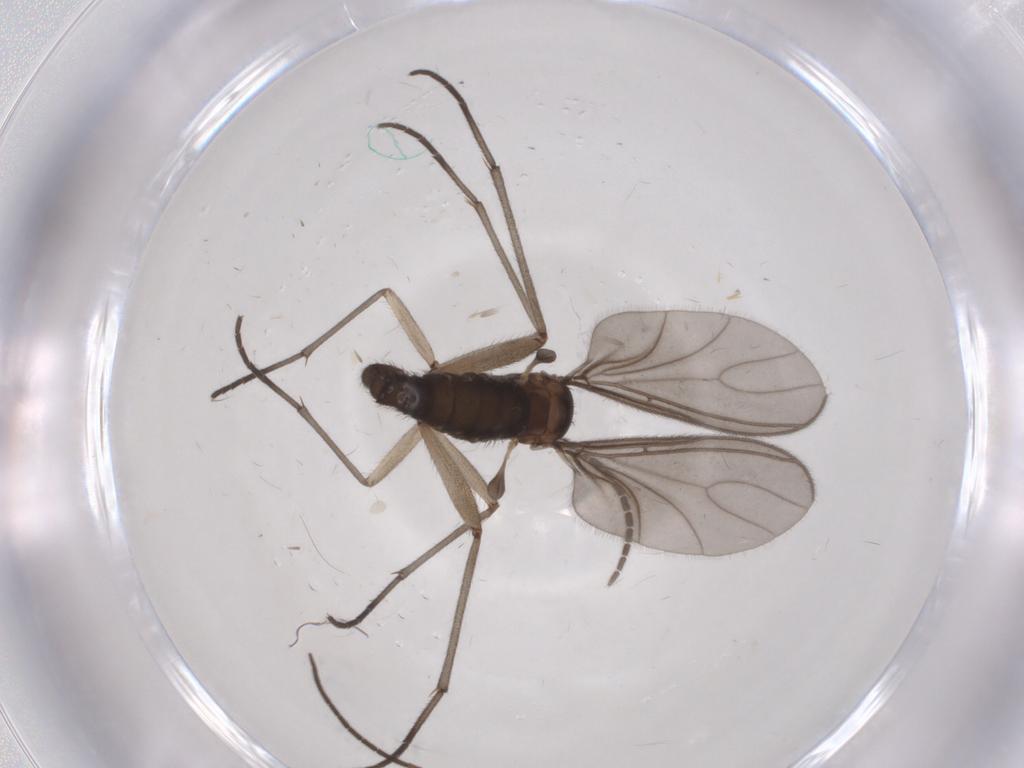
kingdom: Animalia
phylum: Arthropoda
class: Insecta
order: Diptera
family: Sciaridae
